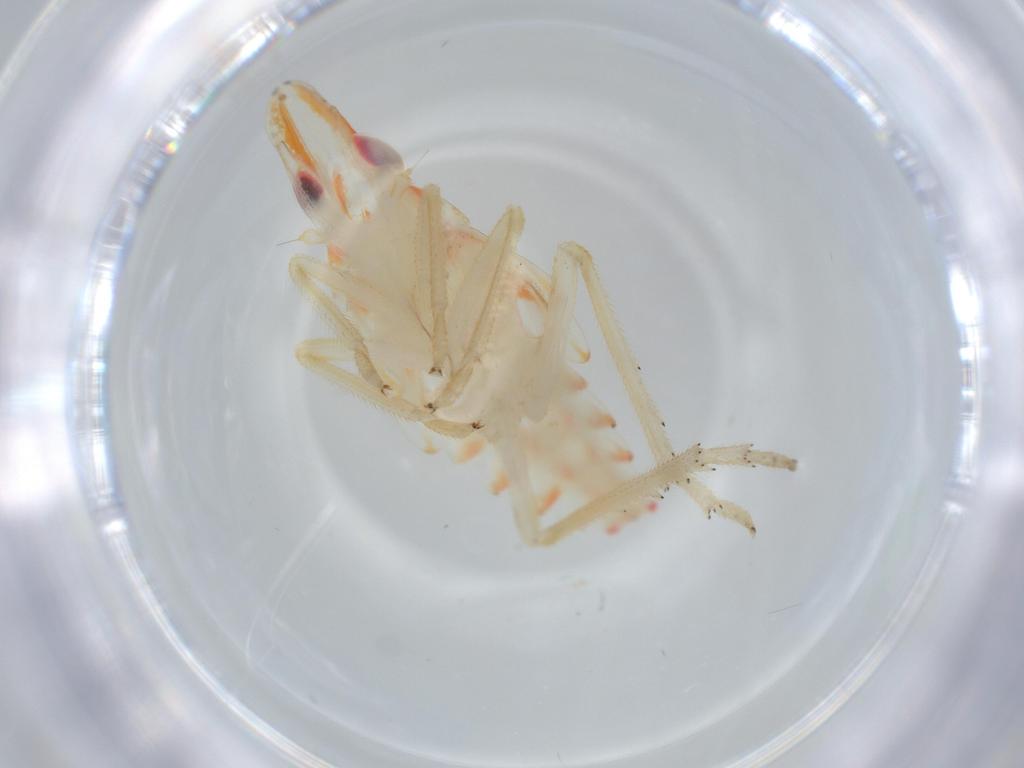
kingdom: Animalia
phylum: Arthropoda
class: Insecta
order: Hemiptera
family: Tropiduchidae
